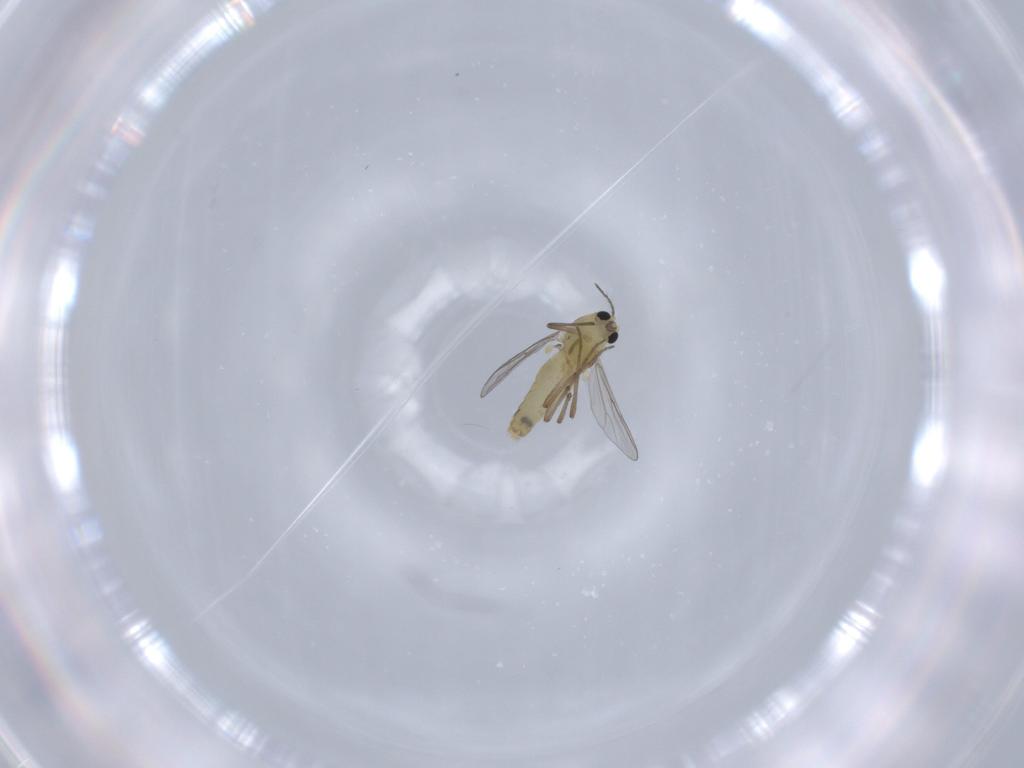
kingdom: Animalia
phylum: Arthropoda
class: Insecta
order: Diptera
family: Chironomidae
